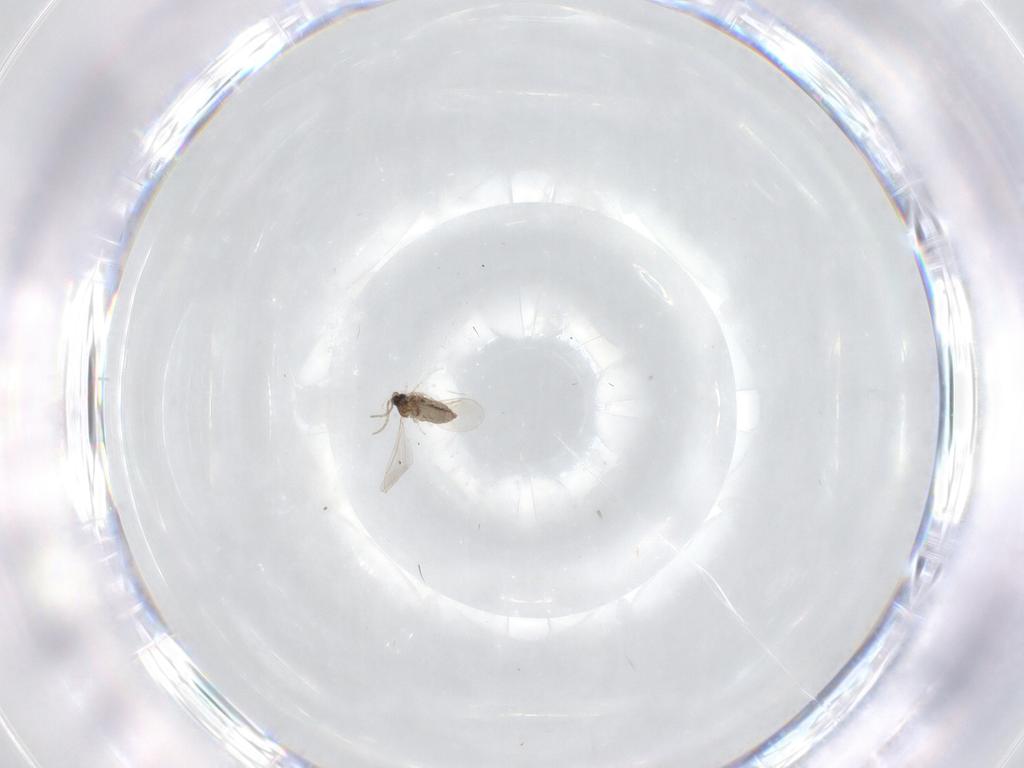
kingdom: Animalia
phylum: Arthropoda
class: Insecta
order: Diptera
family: Cecidomyiidae
